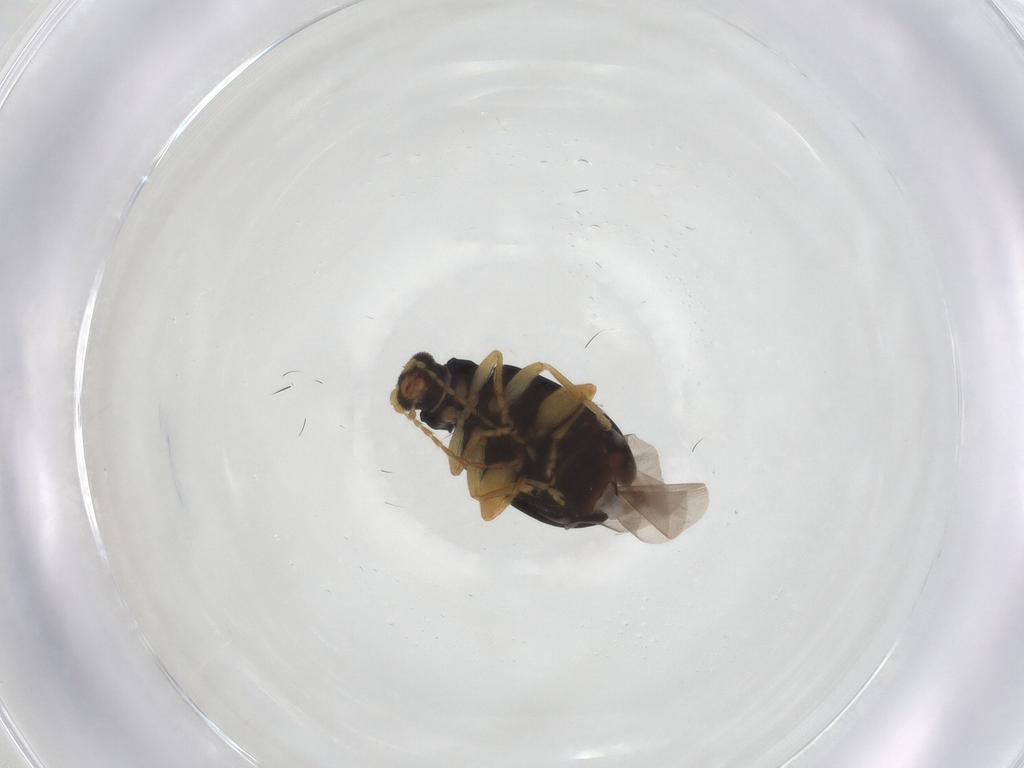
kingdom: Animalia
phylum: Arthropoda
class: Insecta
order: Coleoptera
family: Chrysomelidae
